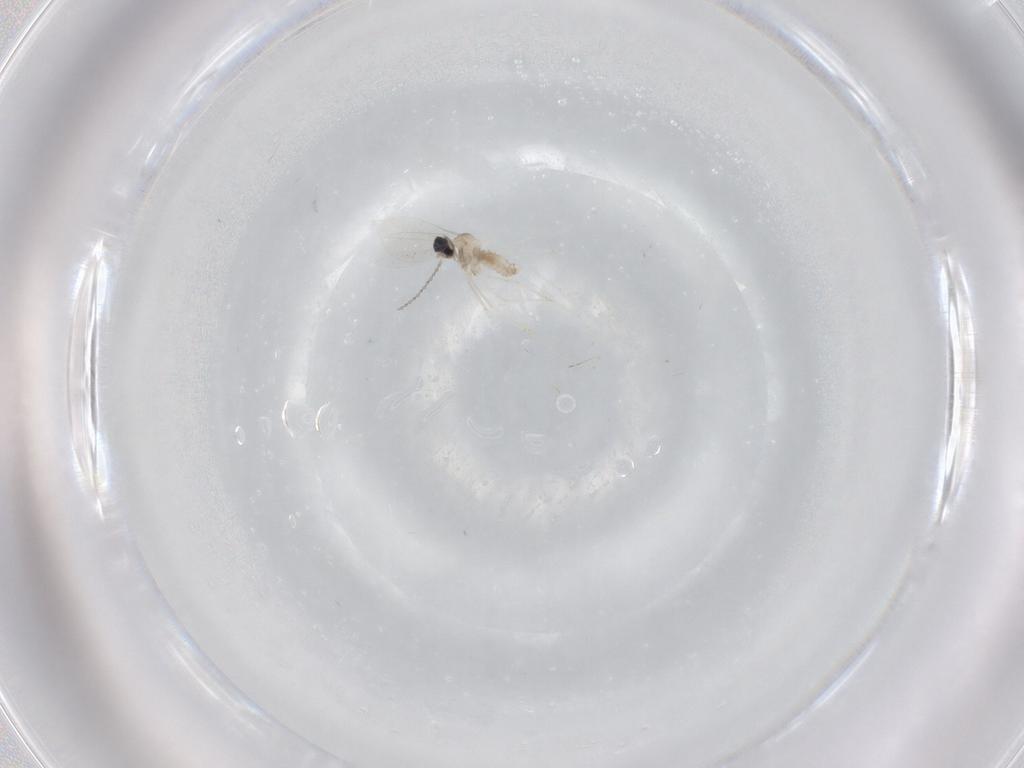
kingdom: Animalia
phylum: Arthropoda
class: Insecta
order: Diptera
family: Cecidomyiidae
